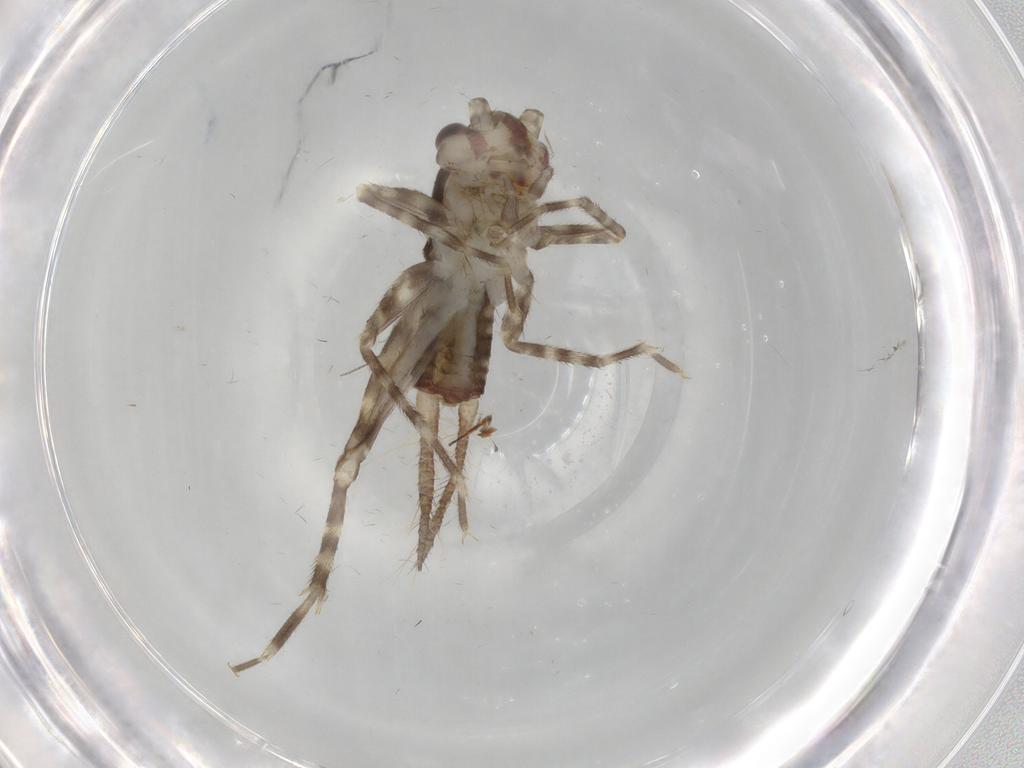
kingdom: Animalia
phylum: Arthropoda
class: Insecta
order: Orthoptera
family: Gryllidae
